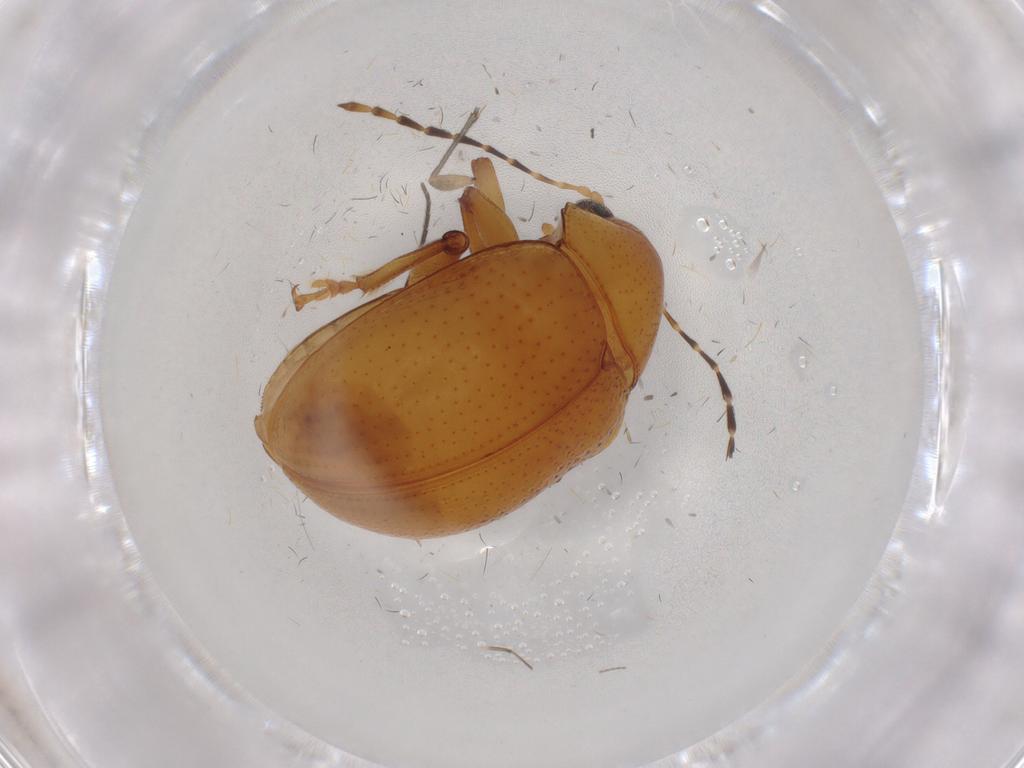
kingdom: Animalia
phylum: Arthropoda
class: Insecta
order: Coleoptera
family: Chrysomelidae
